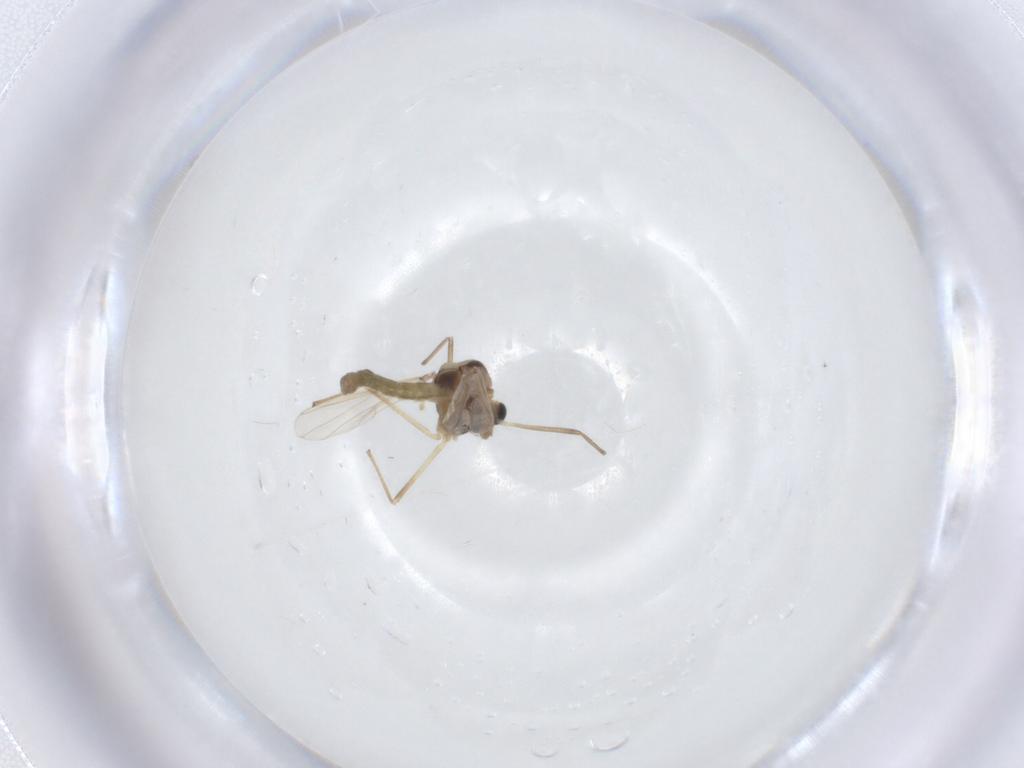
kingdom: Animalia
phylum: Arthropoda
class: Insecta
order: Diptera
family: Chironomidae
